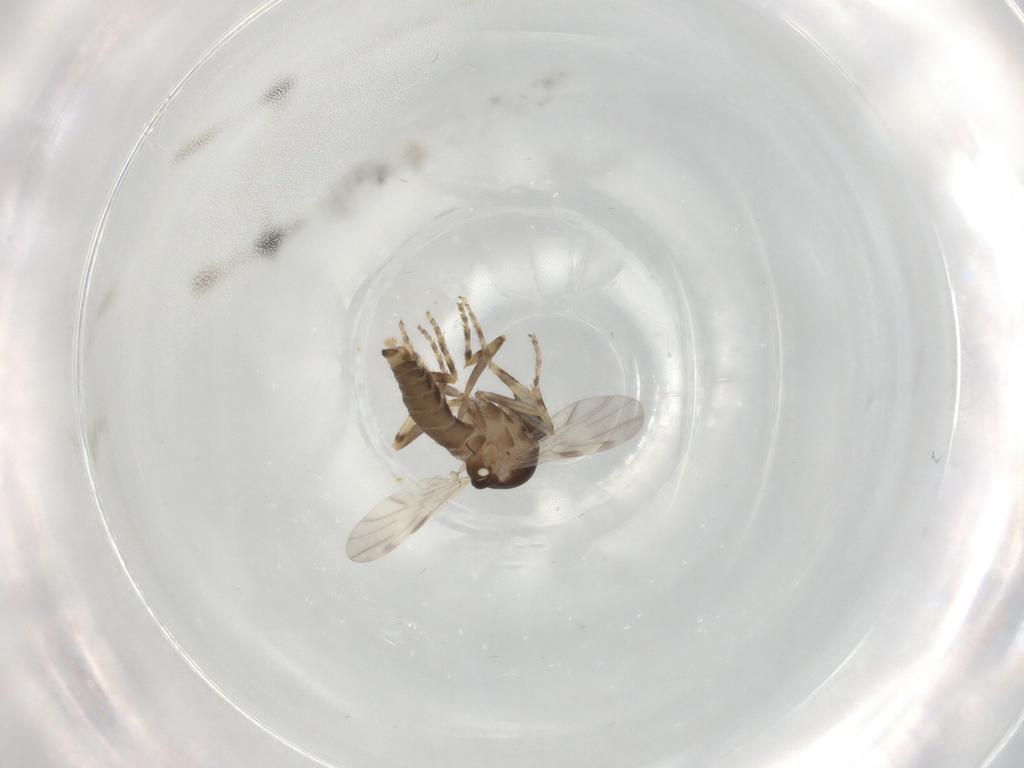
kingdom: Animalia
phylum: Arthropoda
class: Insecta
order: Diptera
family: Ceratopogonidae
